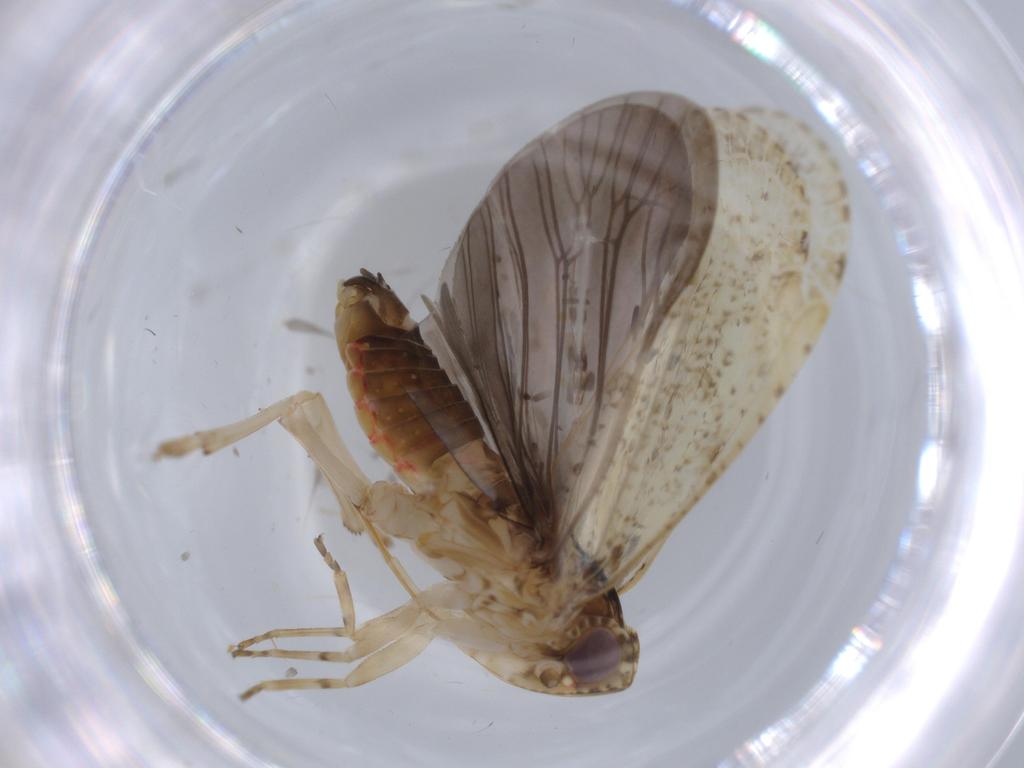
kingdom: Animalia
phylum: Arthropoda
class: Insecta
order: Hemiptera
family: Achilidae
